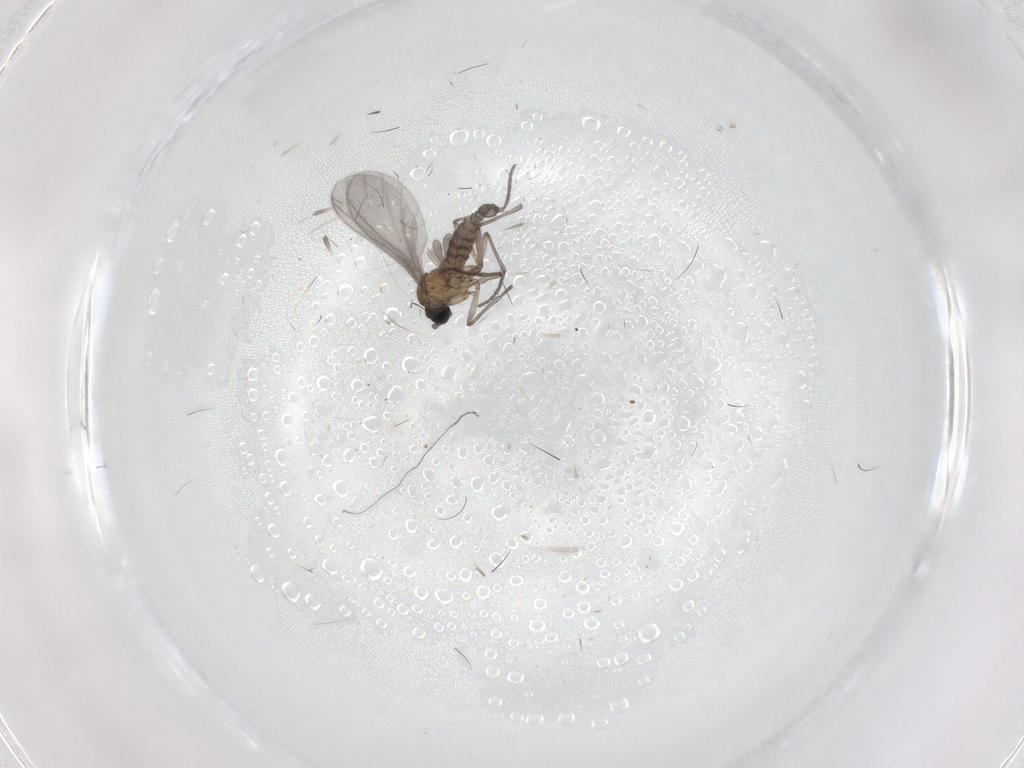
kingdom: Animalia
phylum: Arthropoda
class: Insecta
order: Diptera
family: Sciaridae
